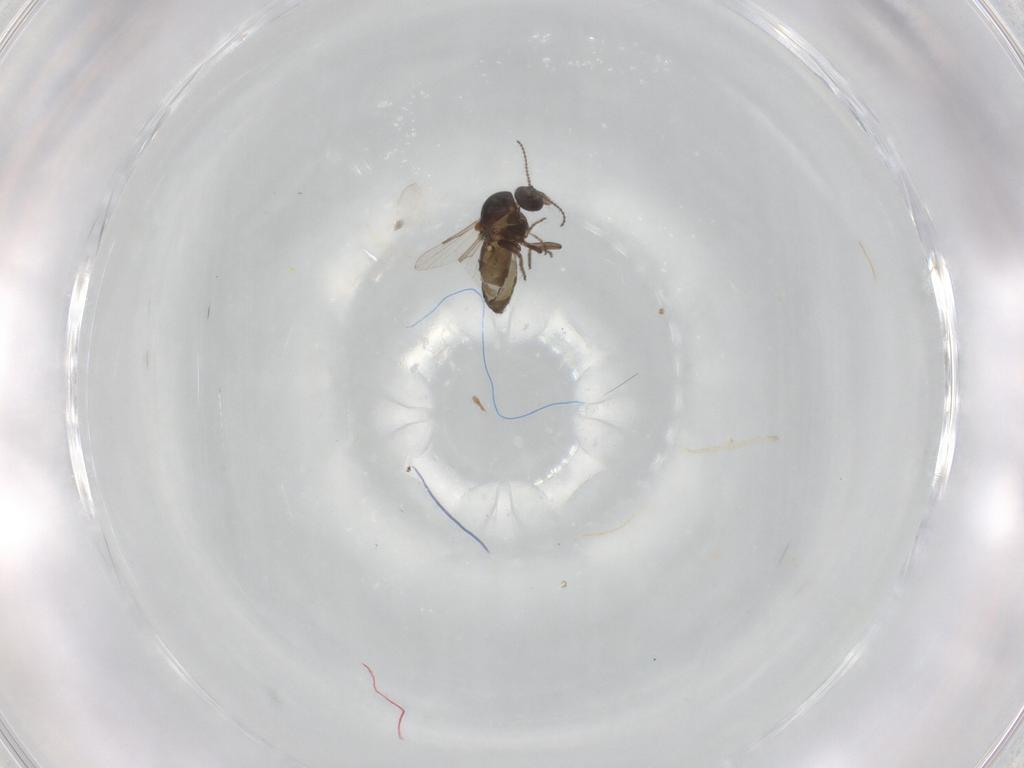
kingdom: Animalia
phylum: Arthropoda
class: Insecta
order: Diptera
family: Ceratopogonidae
